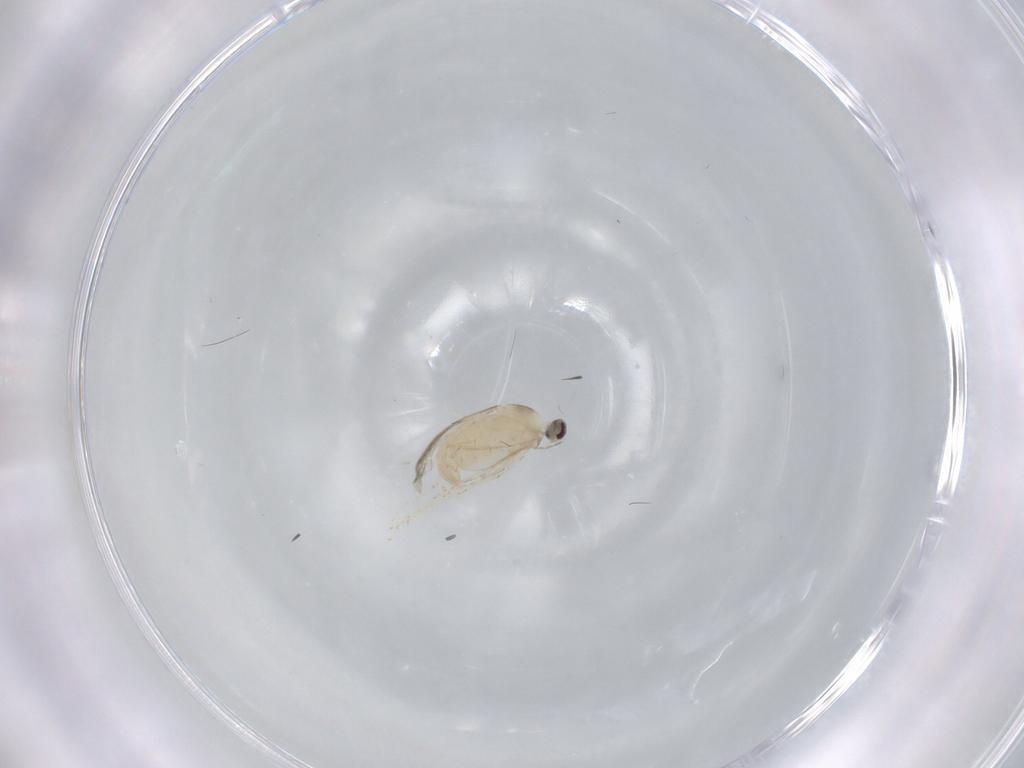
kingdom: Animalia
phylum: Arthropoda
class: Insecta
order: Diptera
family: Cecidomyiidae
